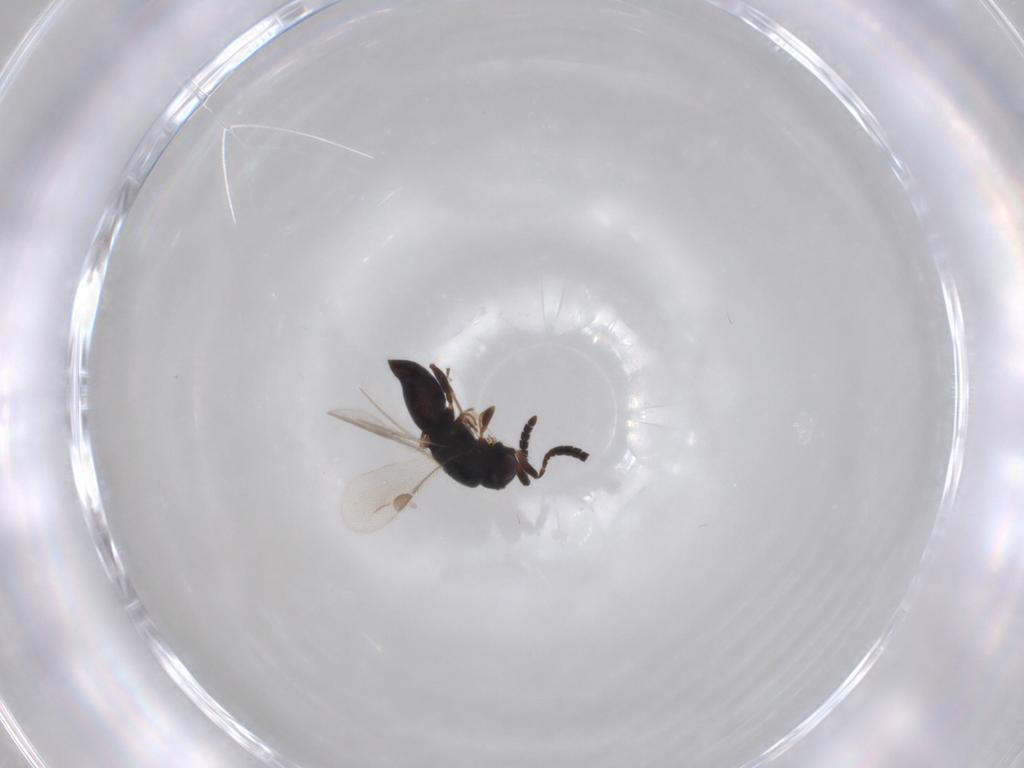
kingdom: Animalia
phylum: Arthropoda
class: Insecta
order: Hymenoptera
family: Megaspilidae
